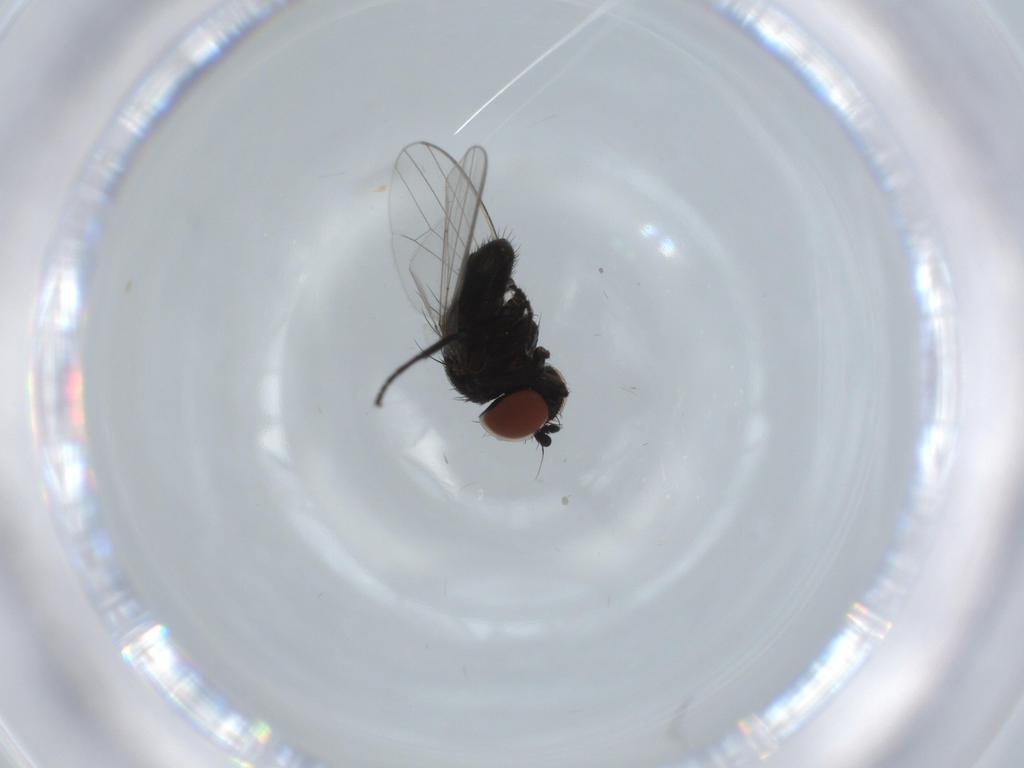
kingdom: Animalia
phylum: Arthropoda
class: Insecta
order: Diptera
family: Milichiidae
